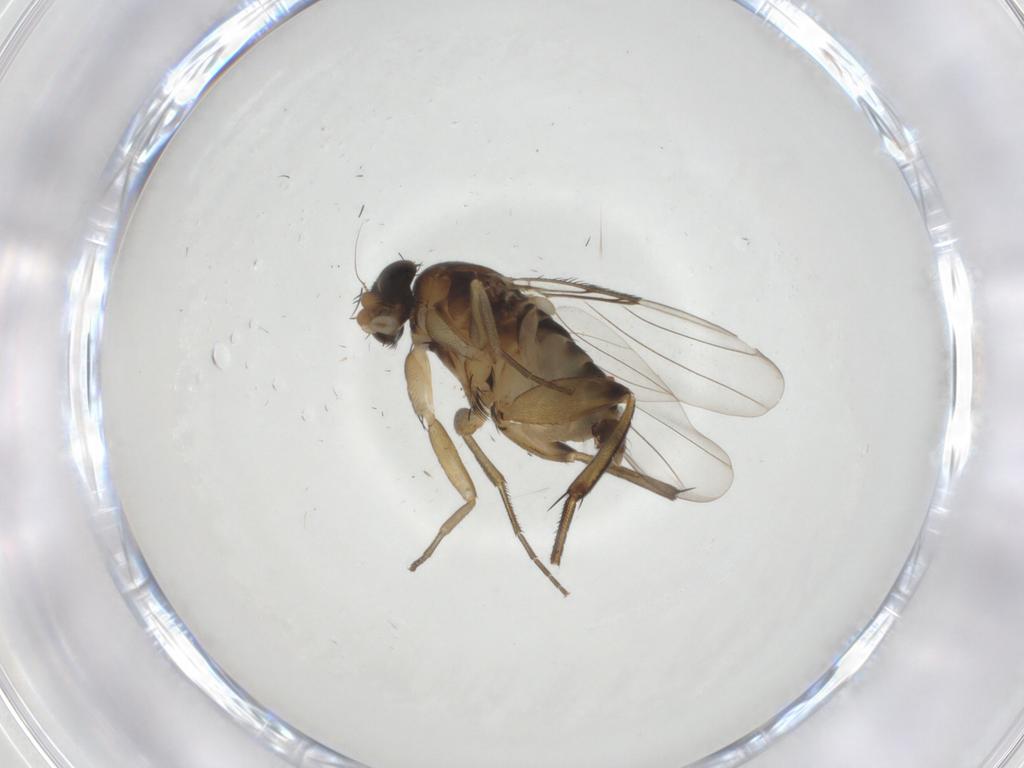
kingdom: Animalia
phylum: Arthropoda
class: Insecta
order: Diptera
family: Phoridae
